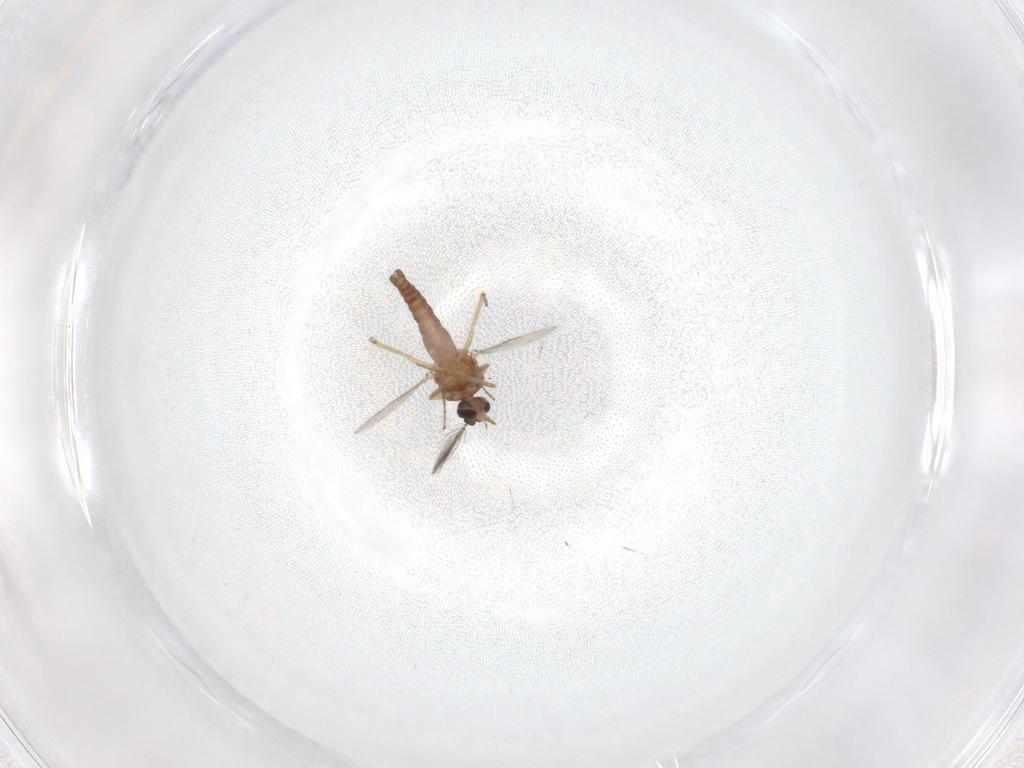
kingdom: Animalia
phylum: Arthropoda
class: Insecta
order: Diptera
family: Ceratopogonidae
